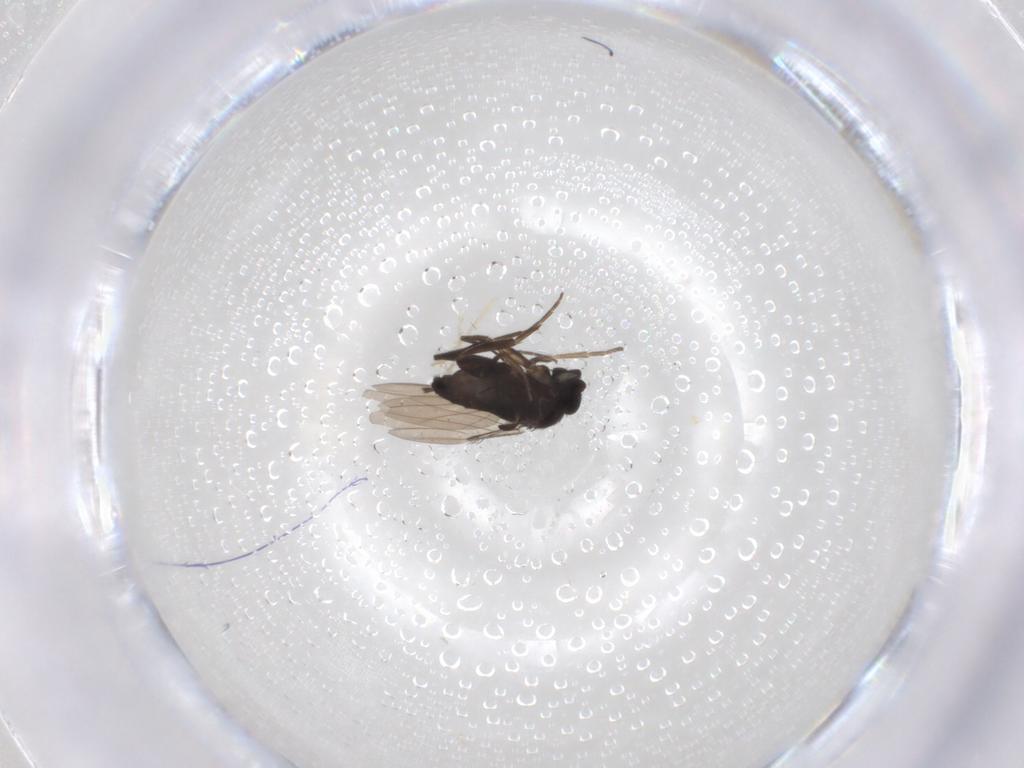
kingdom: Animalia
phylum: Arthropoda
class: Insecta
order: Diptera
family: Phoridae
